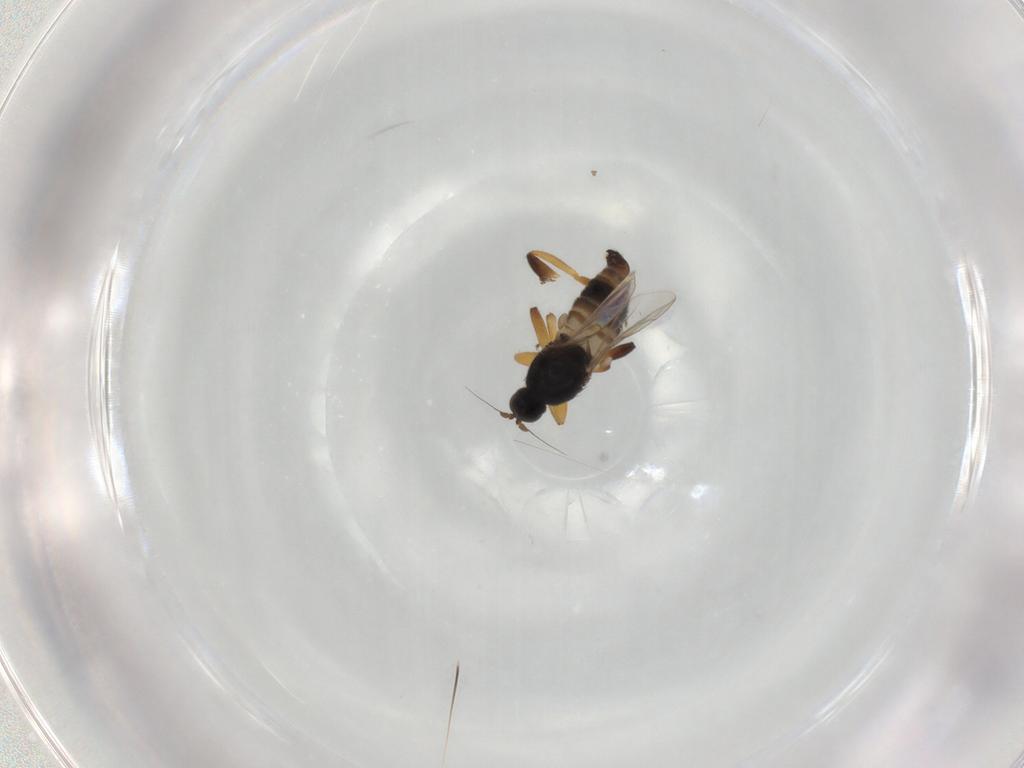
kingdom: Animalia
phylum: Arthropoda
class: Insecta
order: Diptera
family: Hybotidae
